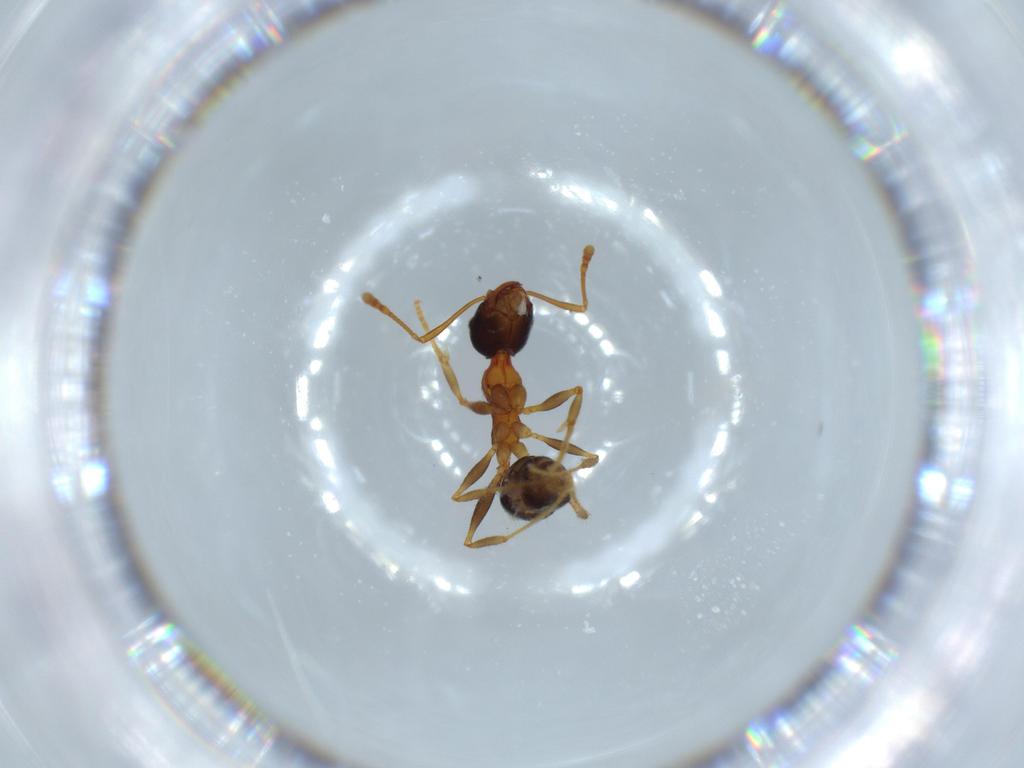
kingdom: Animalia
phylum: Arthropoda
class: Insecta
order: Hymenoptera
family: Formicidae
